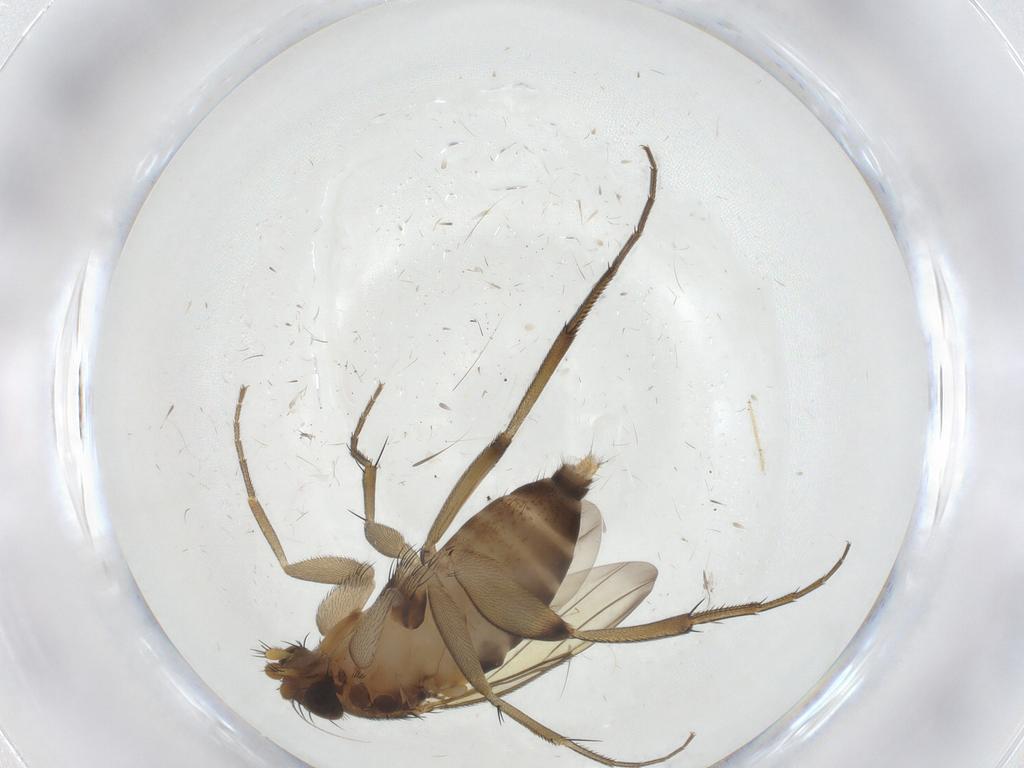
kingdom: Animalia
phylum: Arthropoda
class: Insecta
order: Diptera
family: Phoridae
